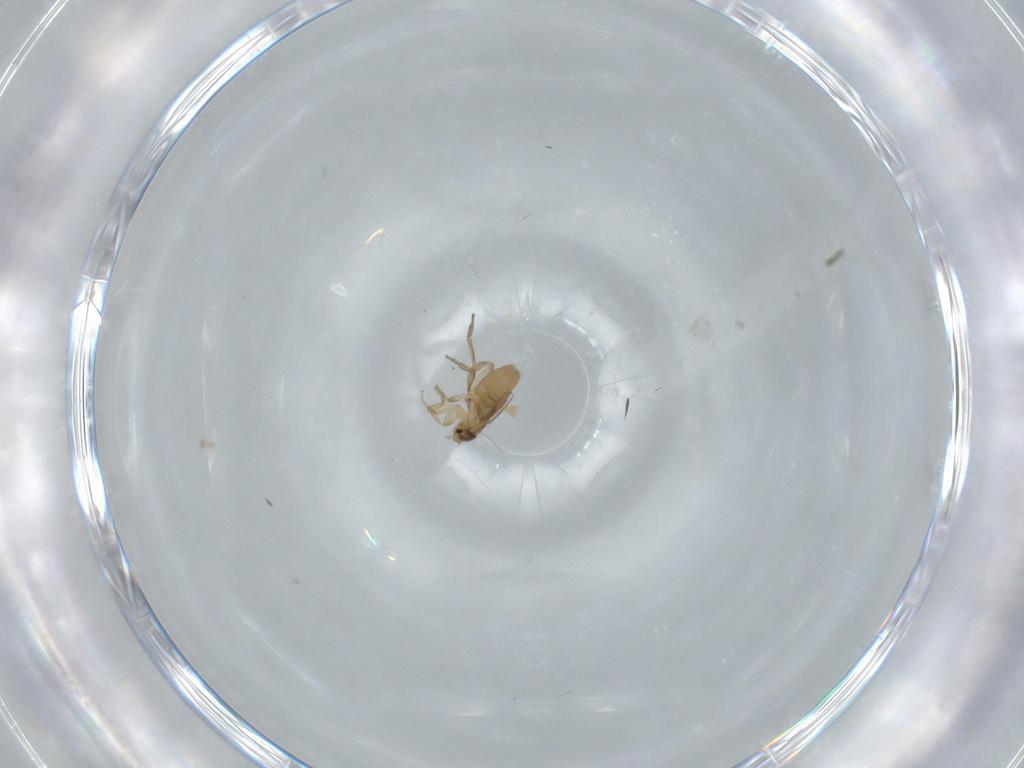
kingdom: Animalia
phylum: Arthropoda
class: Insecta
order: Diptera
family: Phoridae
